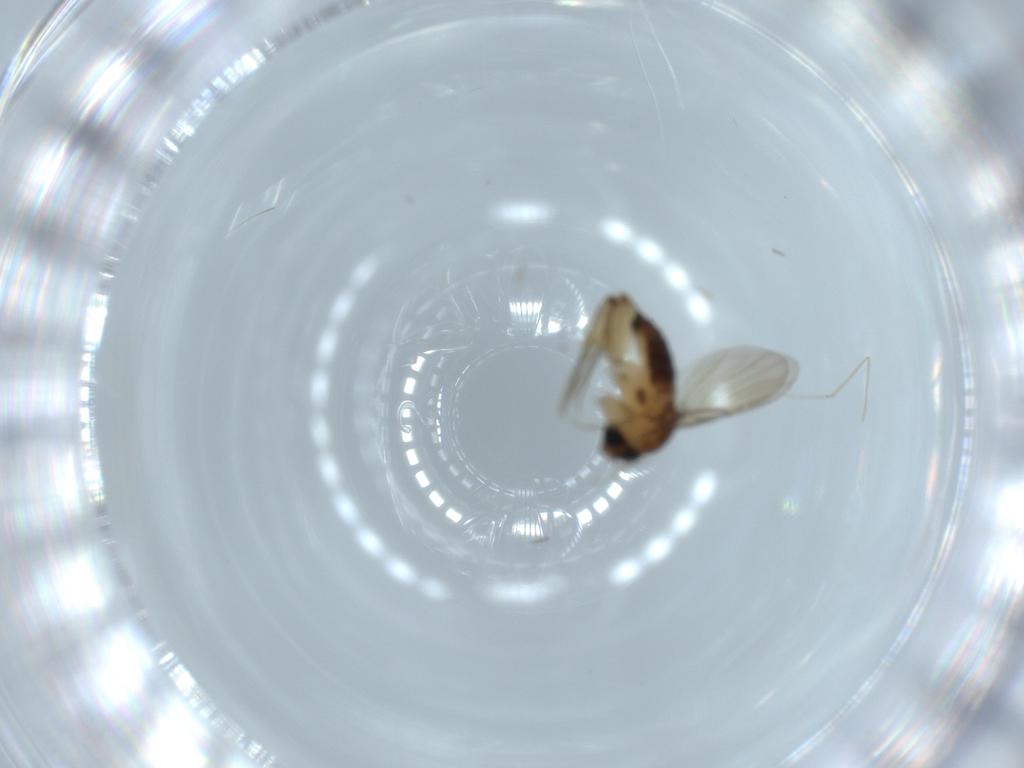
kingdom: Animalia
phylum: Arthropoda
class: Insecta
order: Diptera
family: Phoridae
